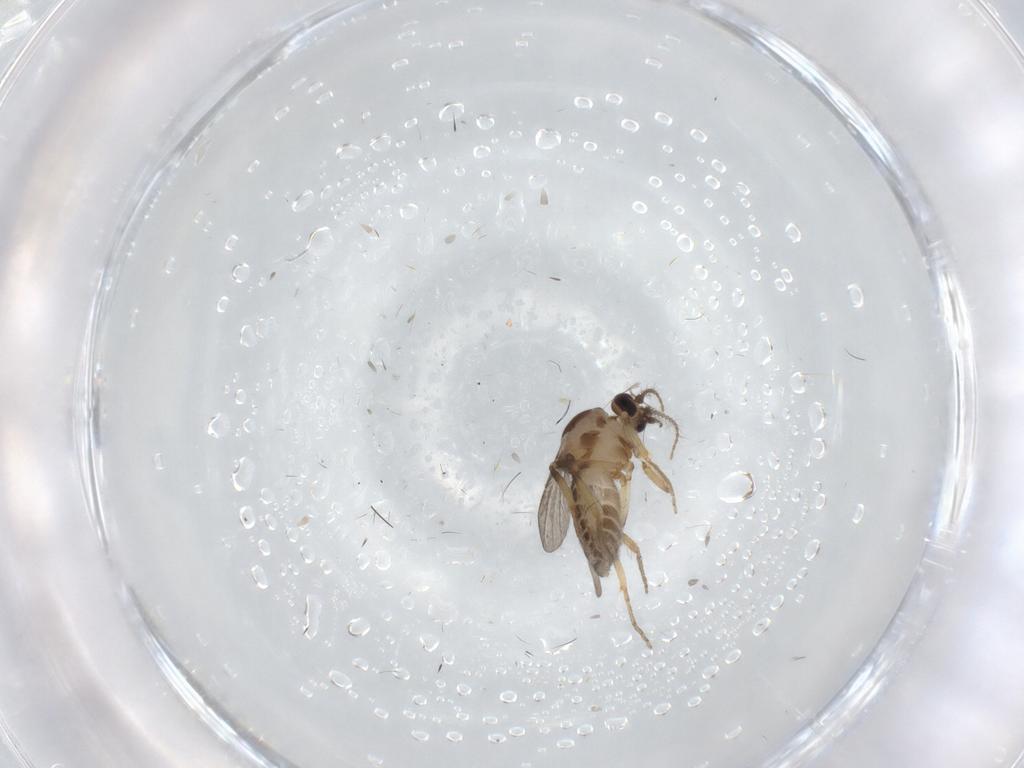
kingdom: Animalia
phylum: Arthropoda
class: Insecta
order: Diptera
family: Ceratopogonidae
